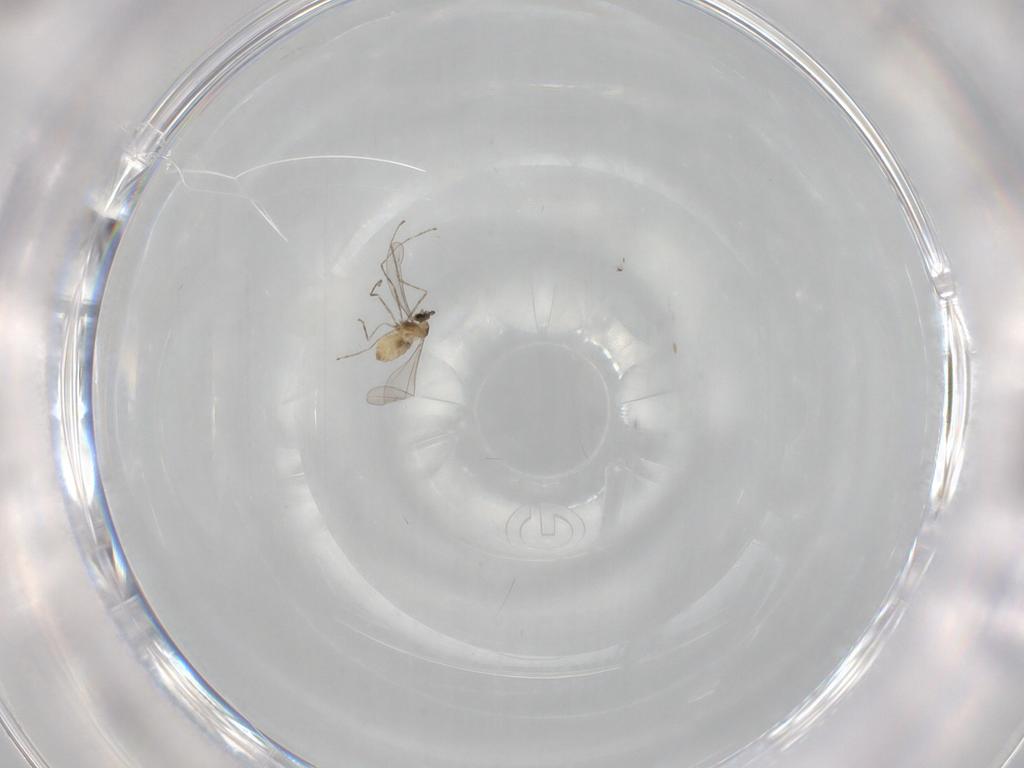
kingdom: Animalia
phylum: Arthropoda
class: Insecta
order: Diptera
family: Cecidomyiidae
